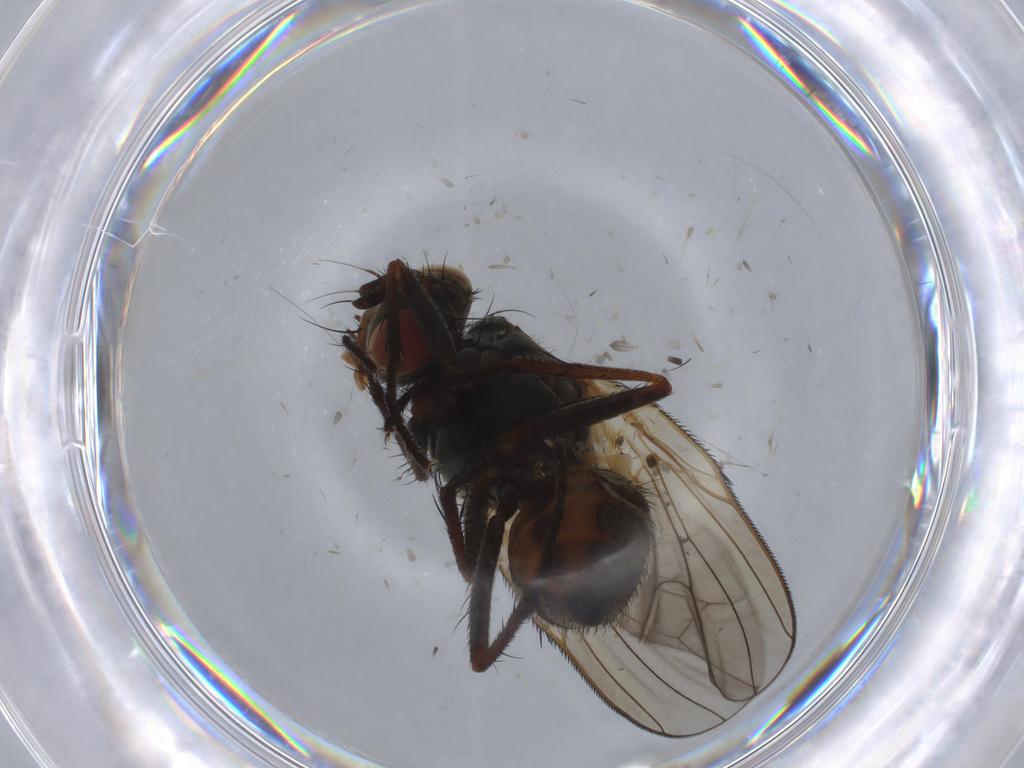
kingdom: Animalia
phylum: Arthropoda
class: Insecta
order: Diptera
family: Anthomyiidae
